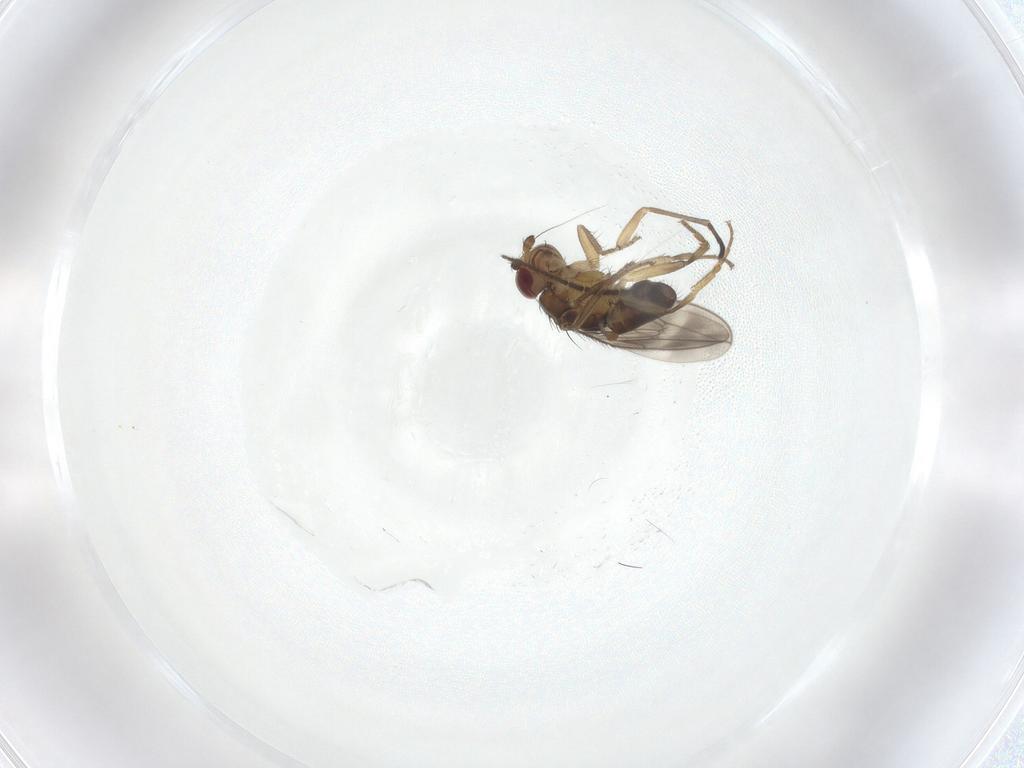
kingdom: Animalia
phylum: Arthropoda
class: Insecta
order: Diptera
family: Sphaeroceridae
